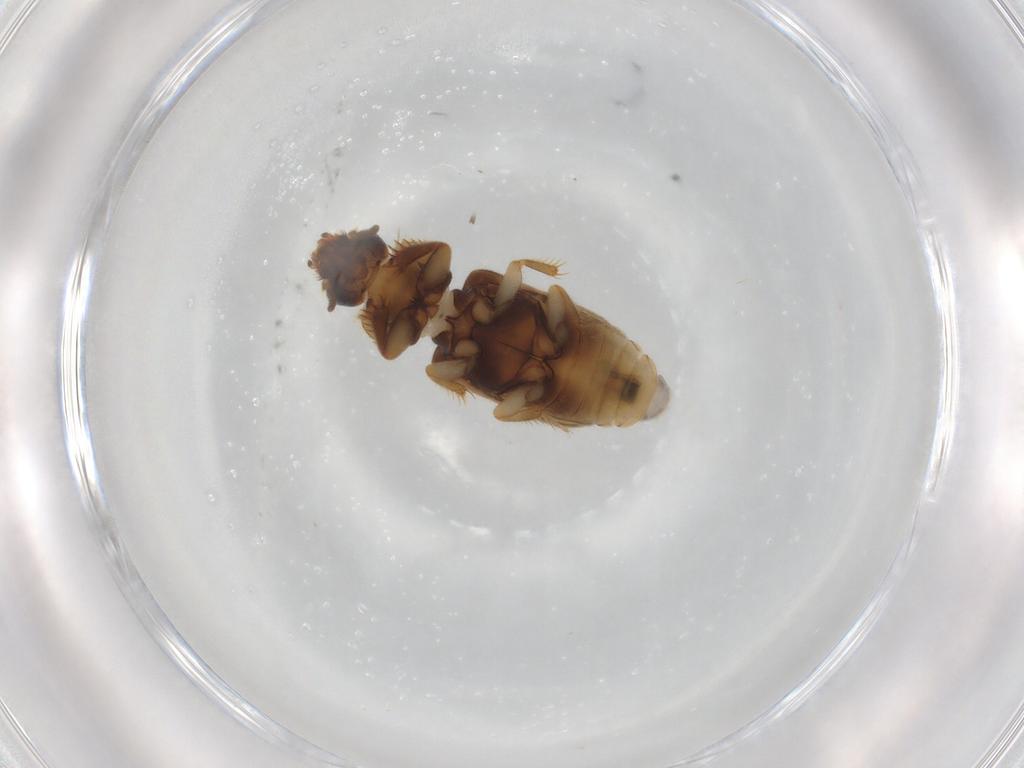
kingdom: Animalia
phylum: Arthropoda
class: Insecta
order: Coleoptera
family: Heteroceridae
